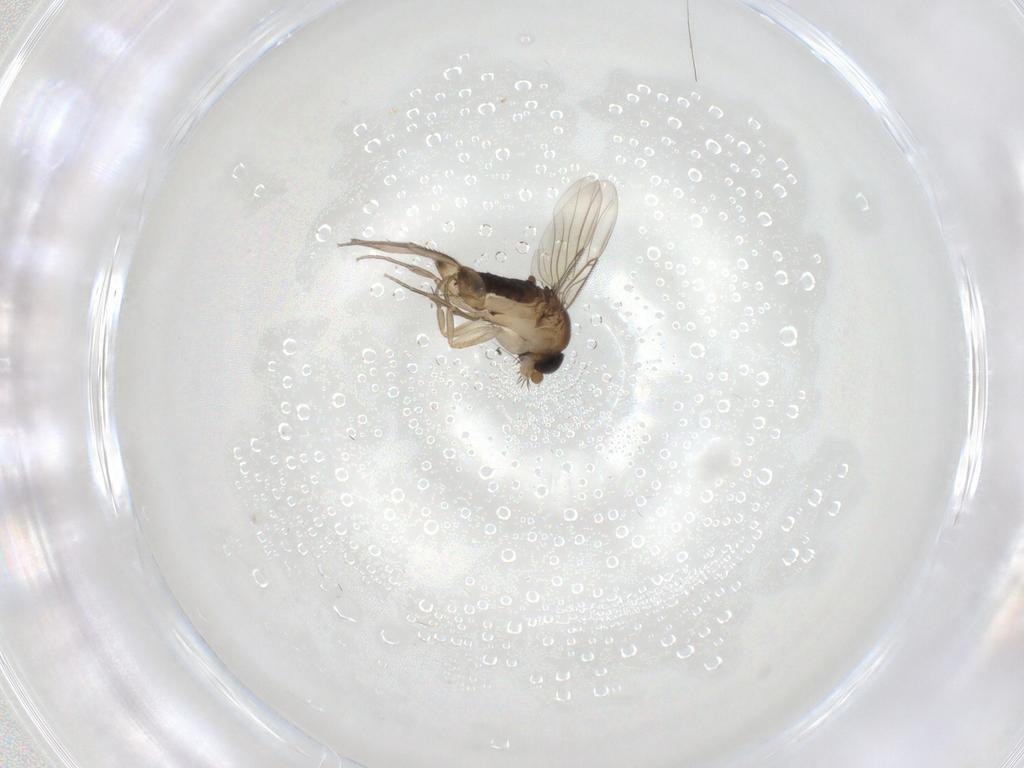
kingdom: Animalia
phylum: Arthropoda
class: Insecta
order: Diptera
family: Phoridae
